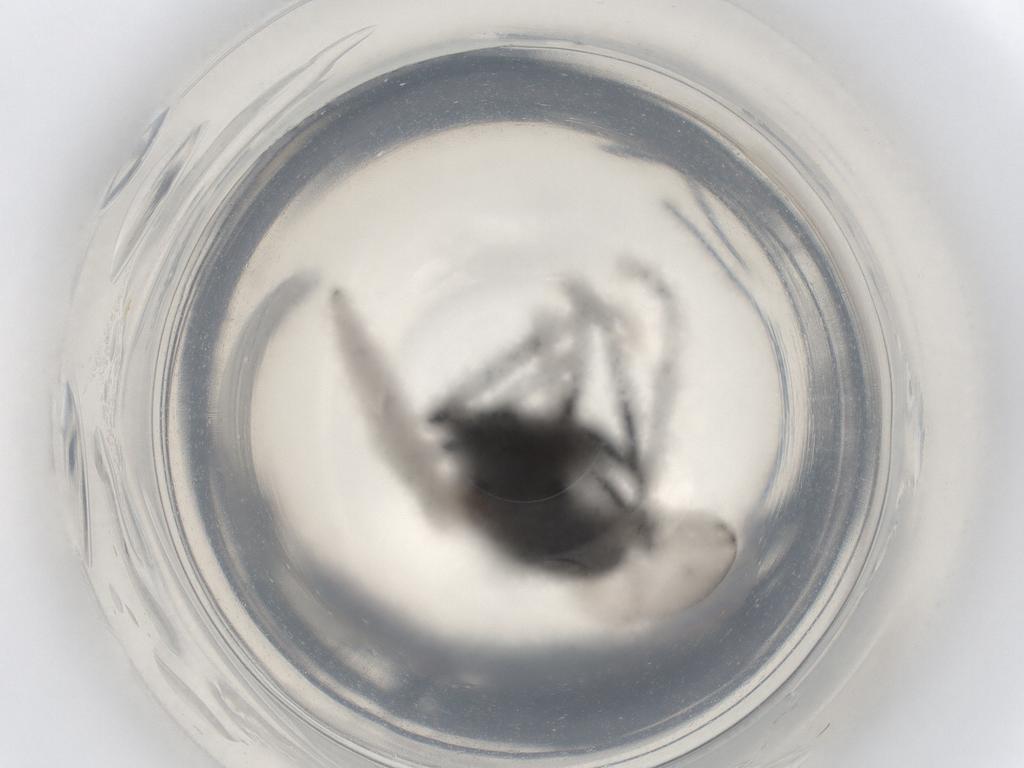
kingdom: Animalia
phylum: Arthropoda
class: Insecta
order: Diptera
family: Dolichopodidae
